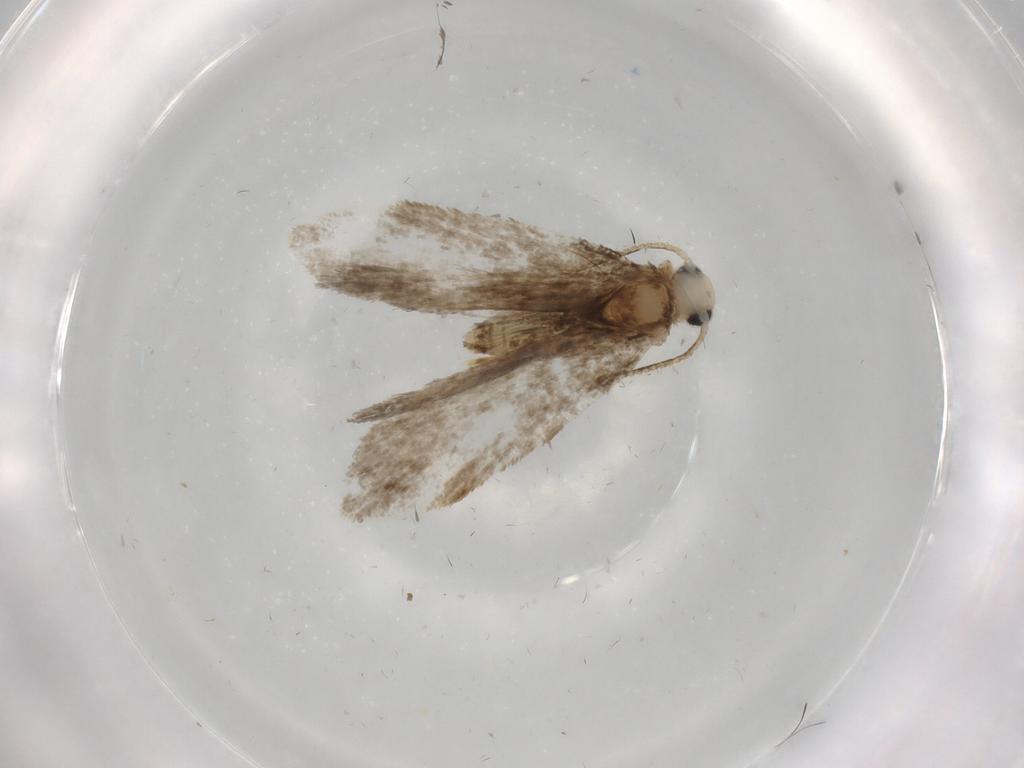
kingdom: Animalia
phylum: Arthropoda
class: Insecta
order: Lepidoptera
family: Psychidae
